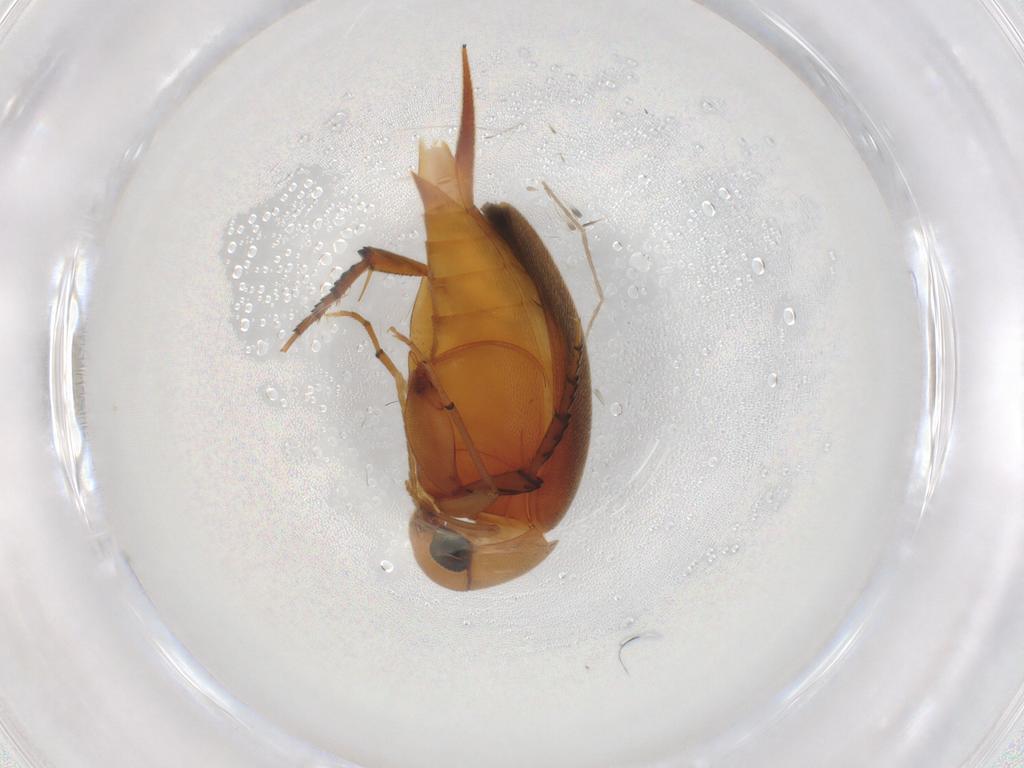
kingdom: Animalia
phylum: Arthropoda
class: Insecta
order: Coleoptera
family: Mordellidae
